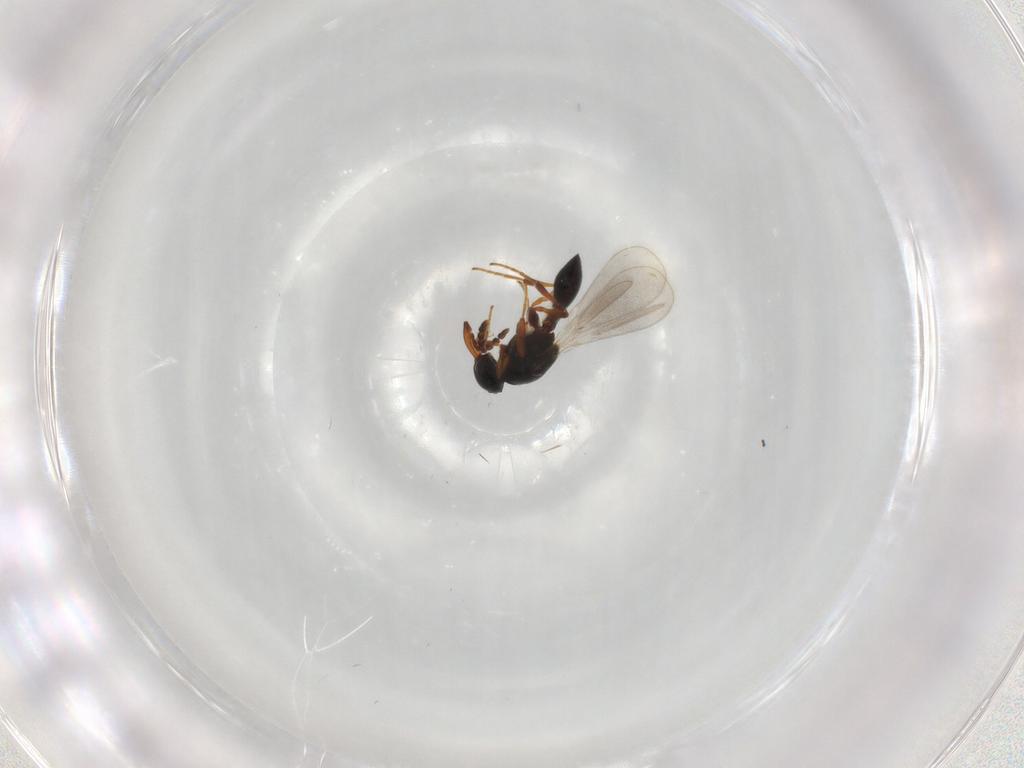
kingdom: Animalia
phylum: Arthropoda
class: Insecta
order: Hymenoptera
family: Platygastridae
